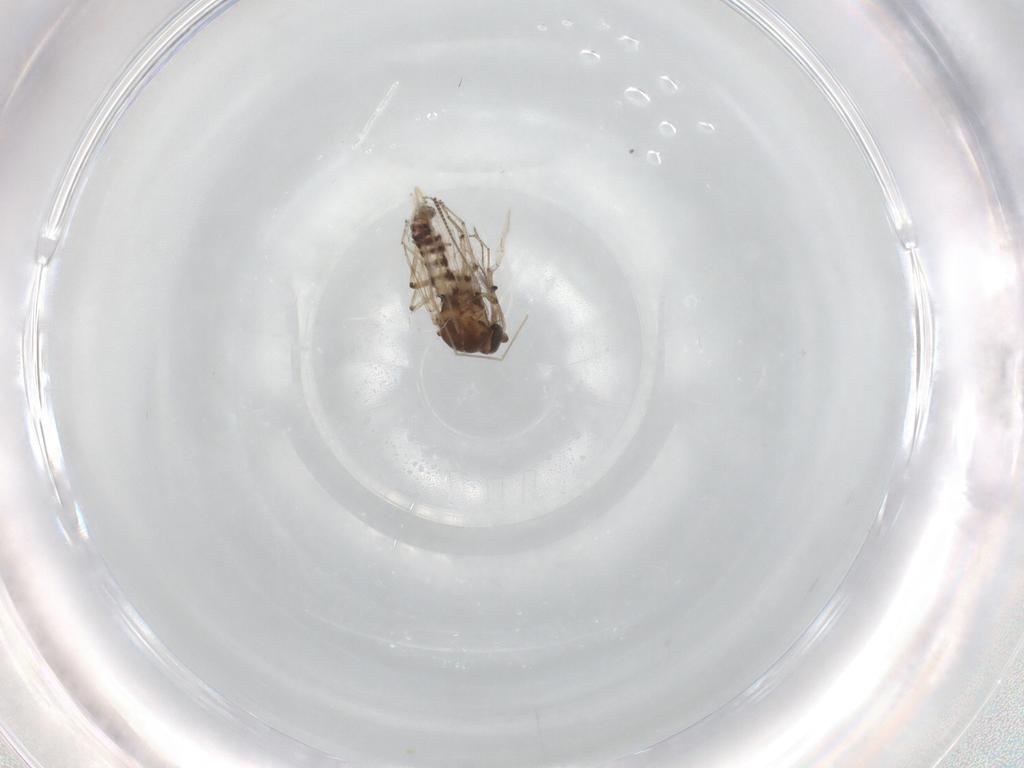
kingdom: Animalia
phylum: Arthropoda
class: Insecta
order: Diptera
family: Ceratopogonidae
